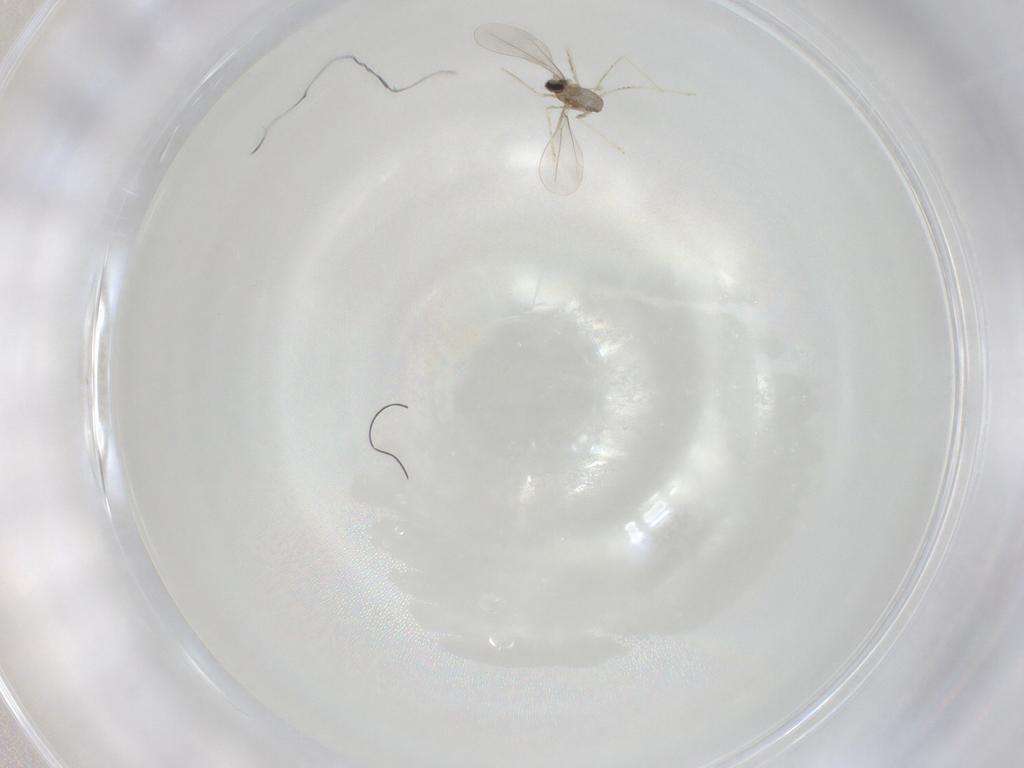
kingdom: Animalia
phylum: Arthropoda
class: Insecta
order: Diptera
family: Cecidomyiidae
